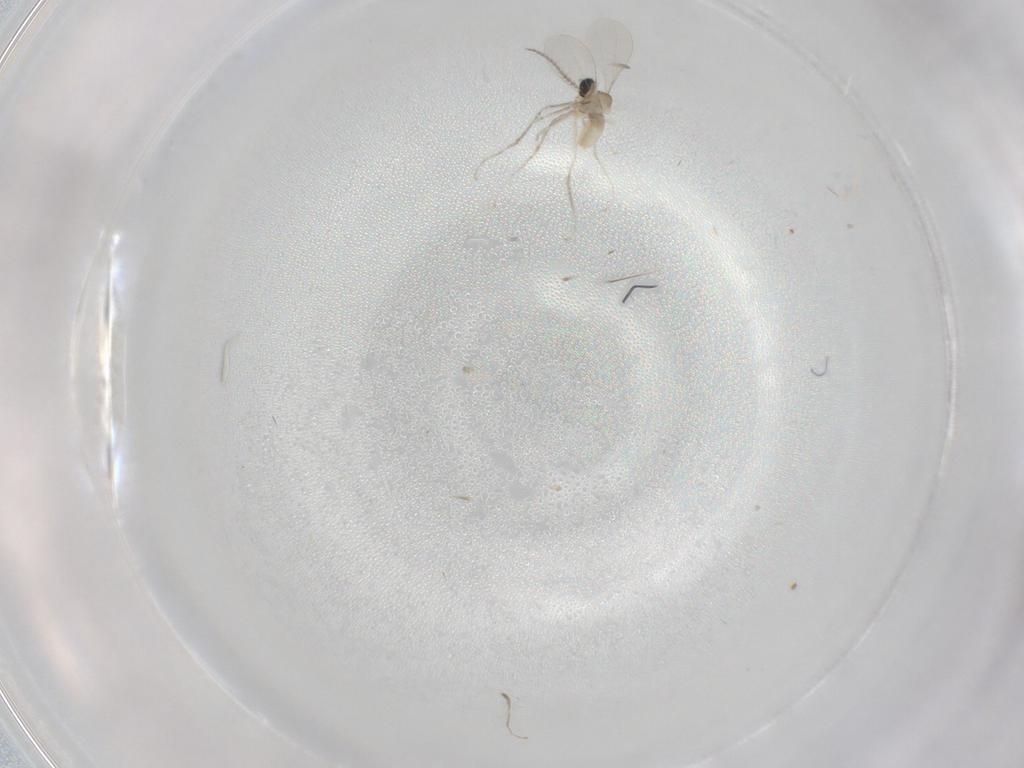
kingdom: Animalia
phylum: Arthropoda
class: Insecta
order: Diptera
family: Cecidomyiidae
